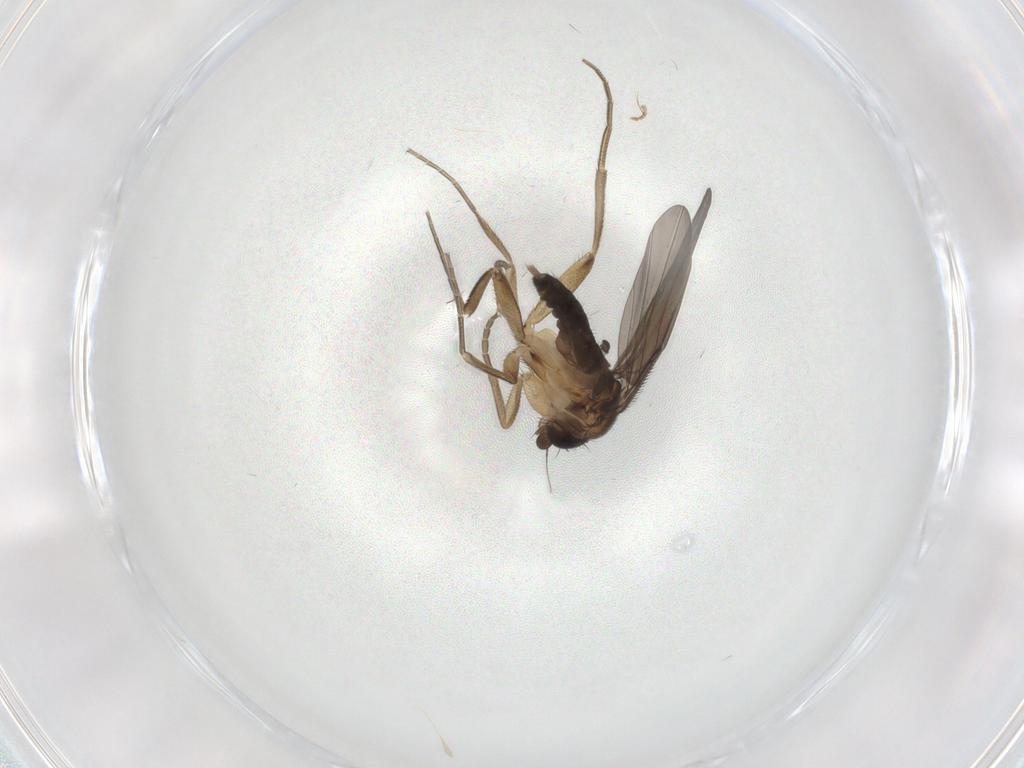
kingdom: Animalia
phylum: Arthropoda
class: Insecta
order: Diptera
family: Phoridae
